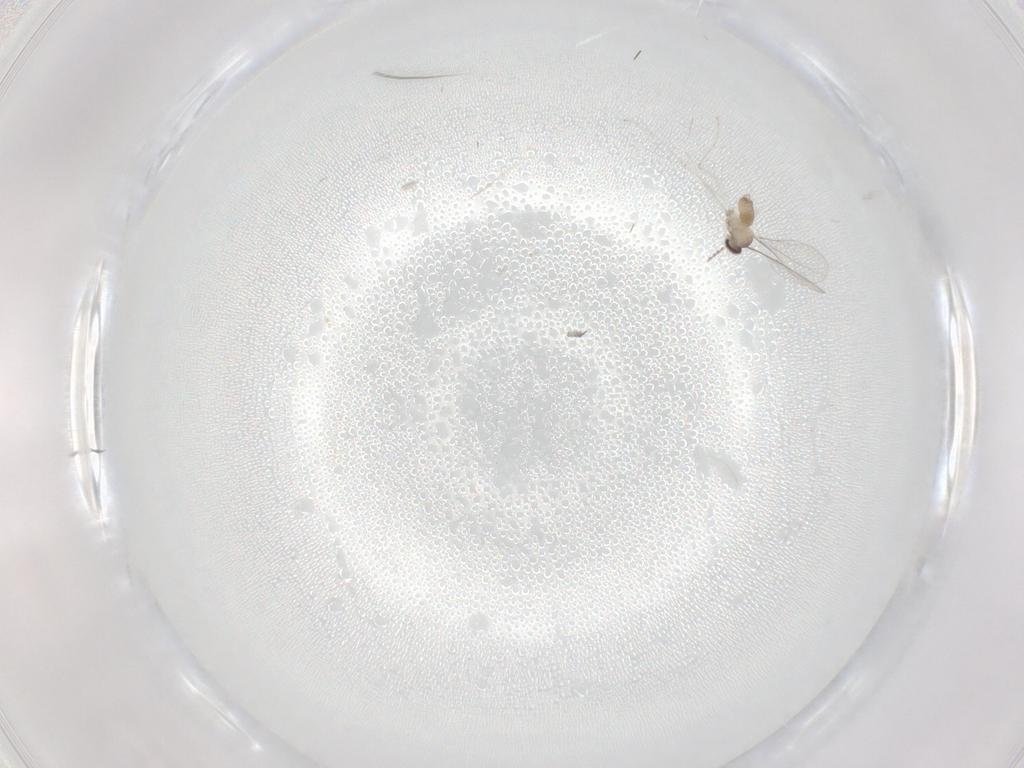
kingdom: Animalia
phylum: Arthropoda
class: Insecta
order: Diptera
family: Cecidomyiidae
